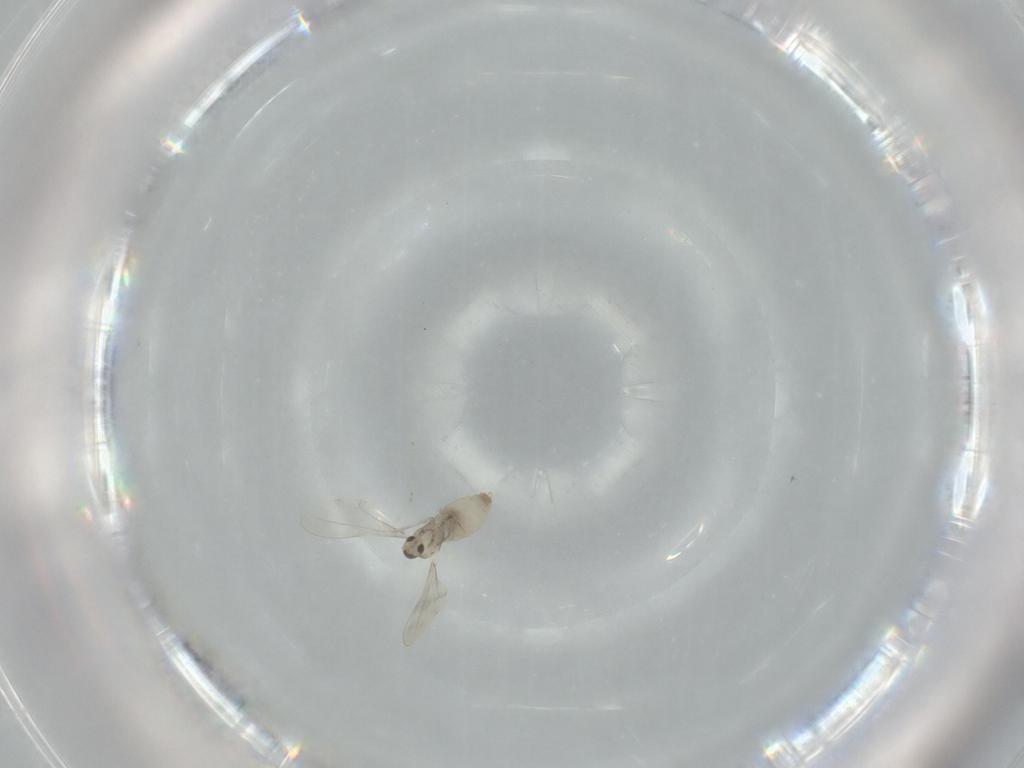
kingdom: Animalia
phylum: Arthropoda
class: Insecta
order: Diptera
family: Cecidomyiidae
